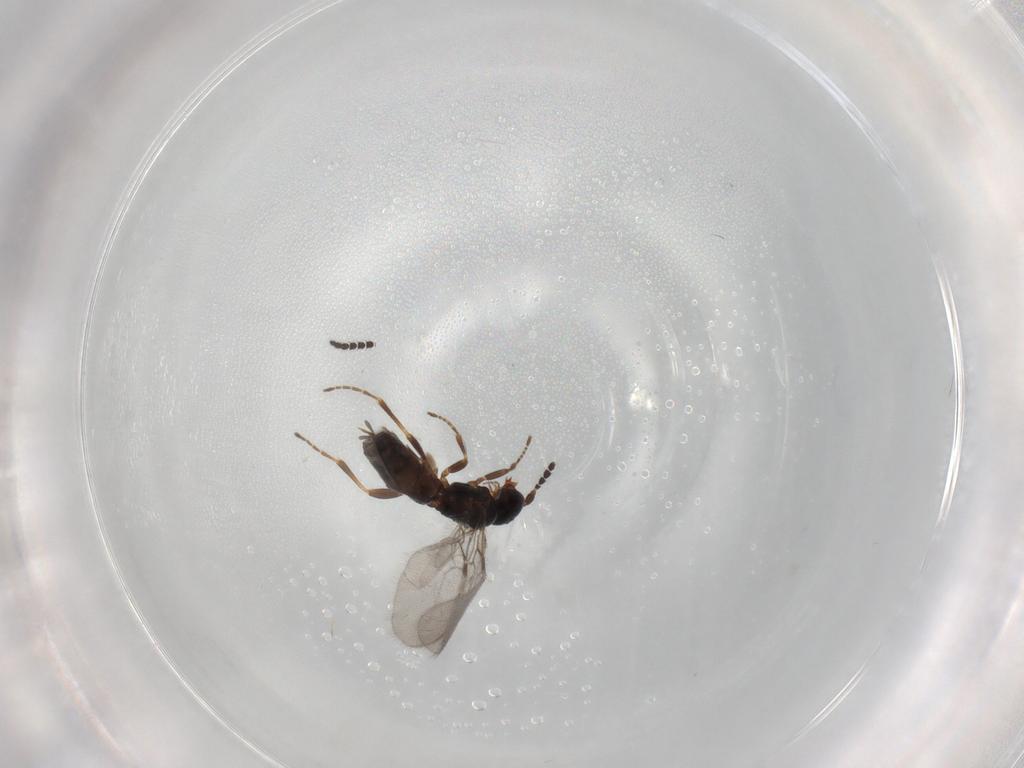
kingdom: Animalia
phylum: Arthropoda
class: Insecta
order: Hymenoptera
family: Braconidae
